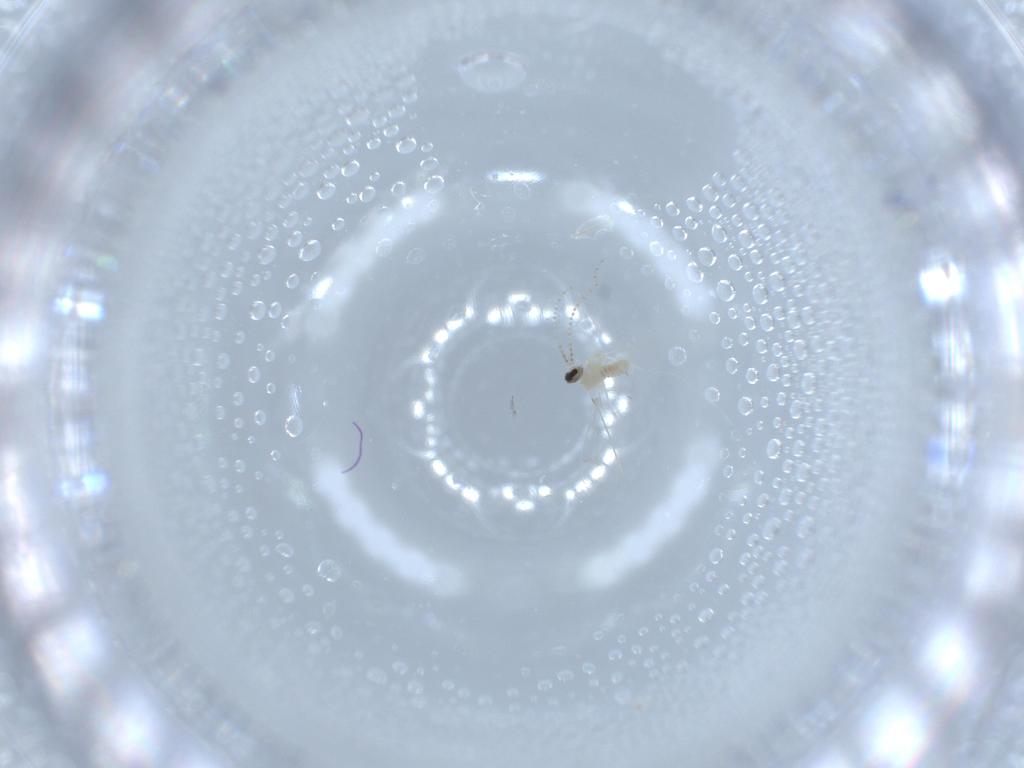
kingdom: Animalia
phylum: Arthropoda
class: Insecta
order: Diptera
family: Cecidomyiidae
